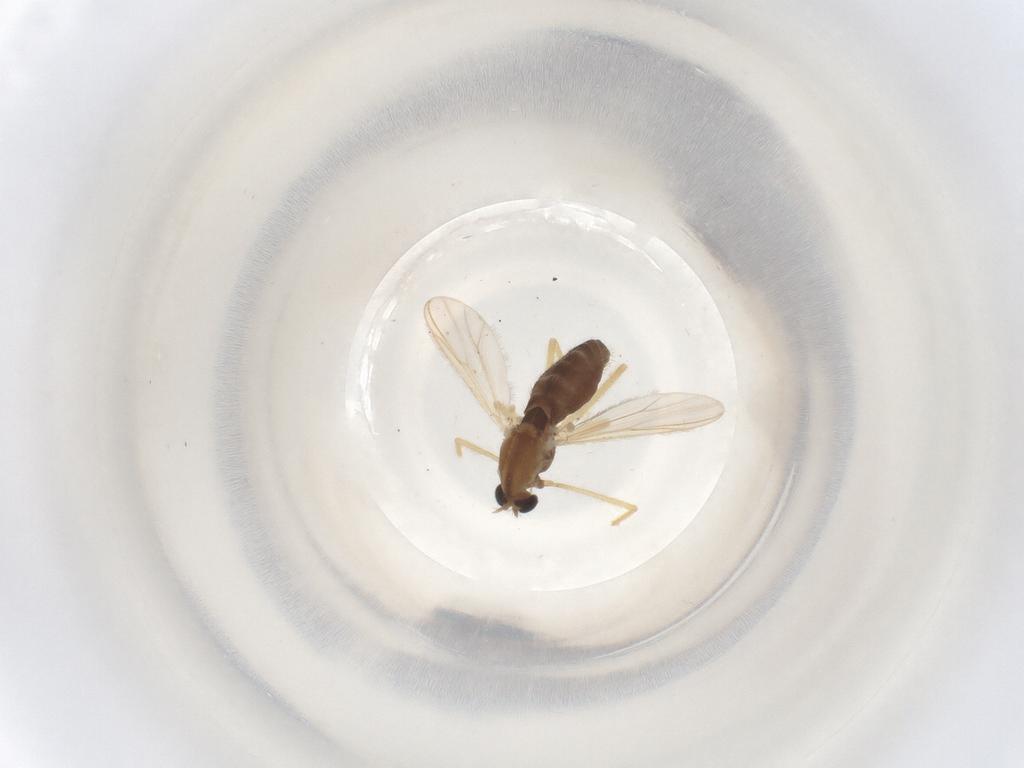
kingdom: Animalia
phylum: Arthropoda
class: Insecta
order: Diptera
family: Chironomidae
